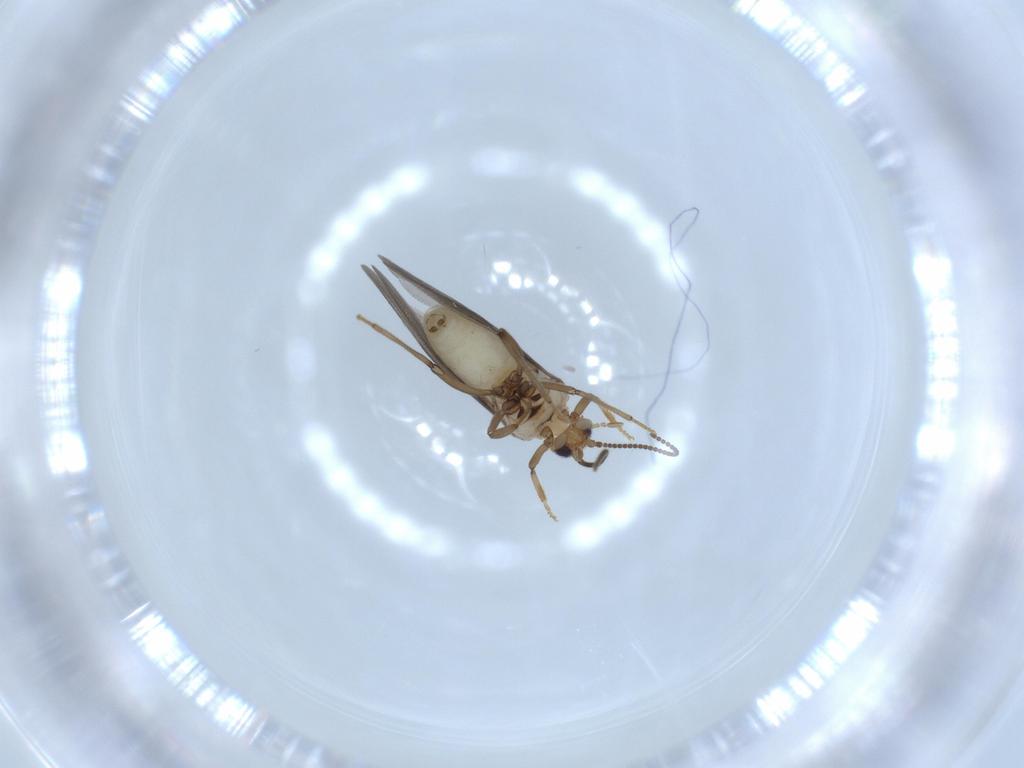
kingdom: Animalia
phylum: Arthropoda
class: Insecta
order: Neuroptera
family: Coniopterygidae
